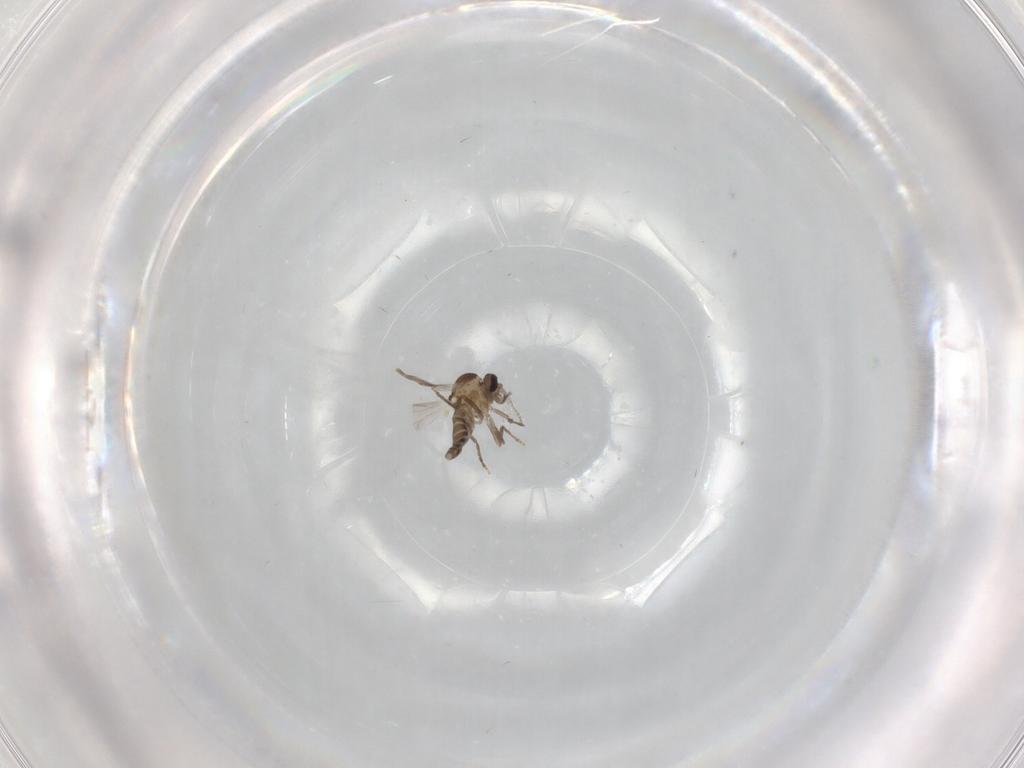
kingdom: Animalia
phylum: Arthropoda
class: Insecta
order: Diptera
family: Ceratopogonidae
